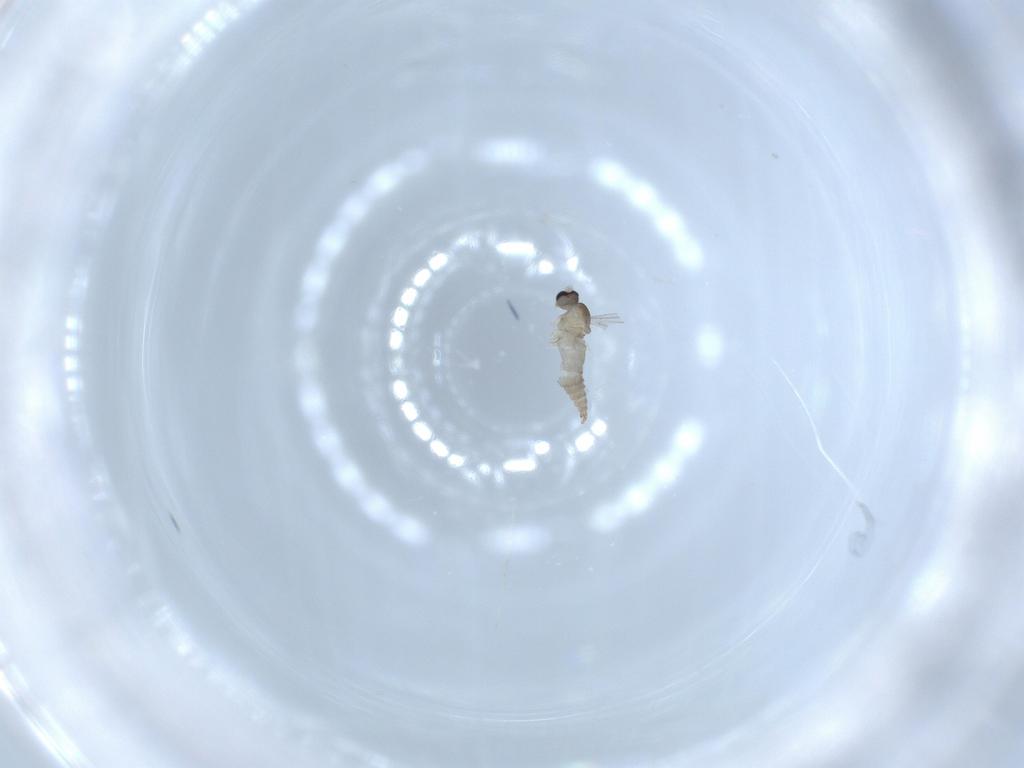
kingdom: Animalia
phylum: Arthropoda
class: Insecta
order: Diptera
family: Cecidomyiidae
